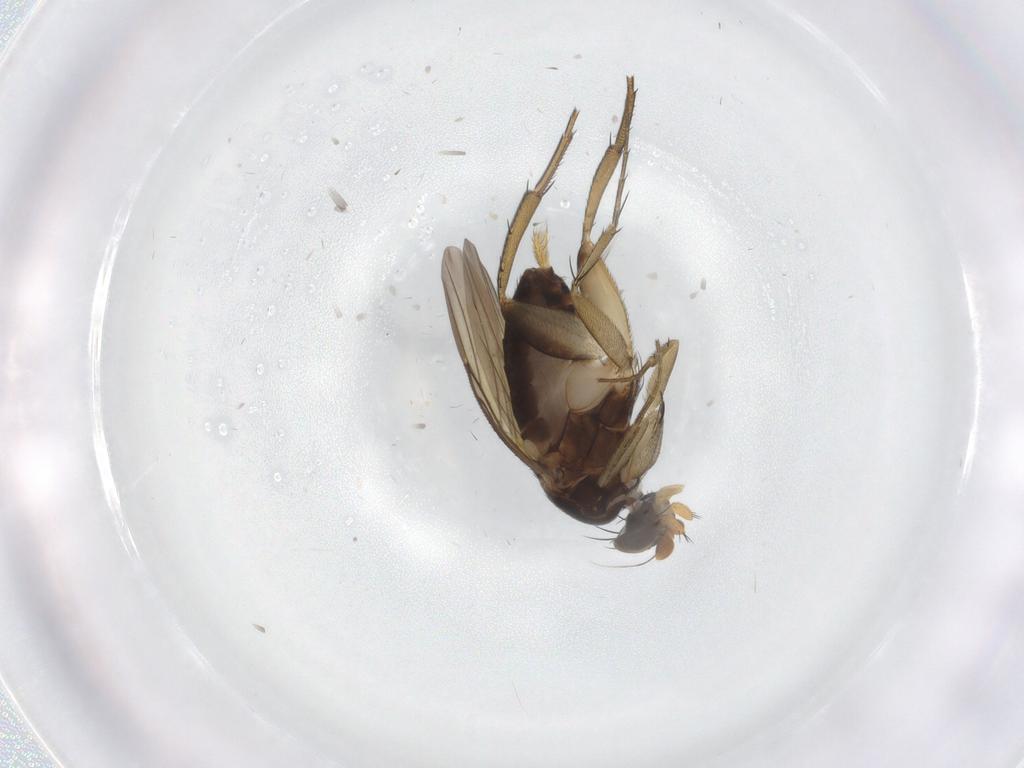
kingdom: Animalia
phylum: Arthropoda
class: Insecta
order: Diptera
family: Phoridae
